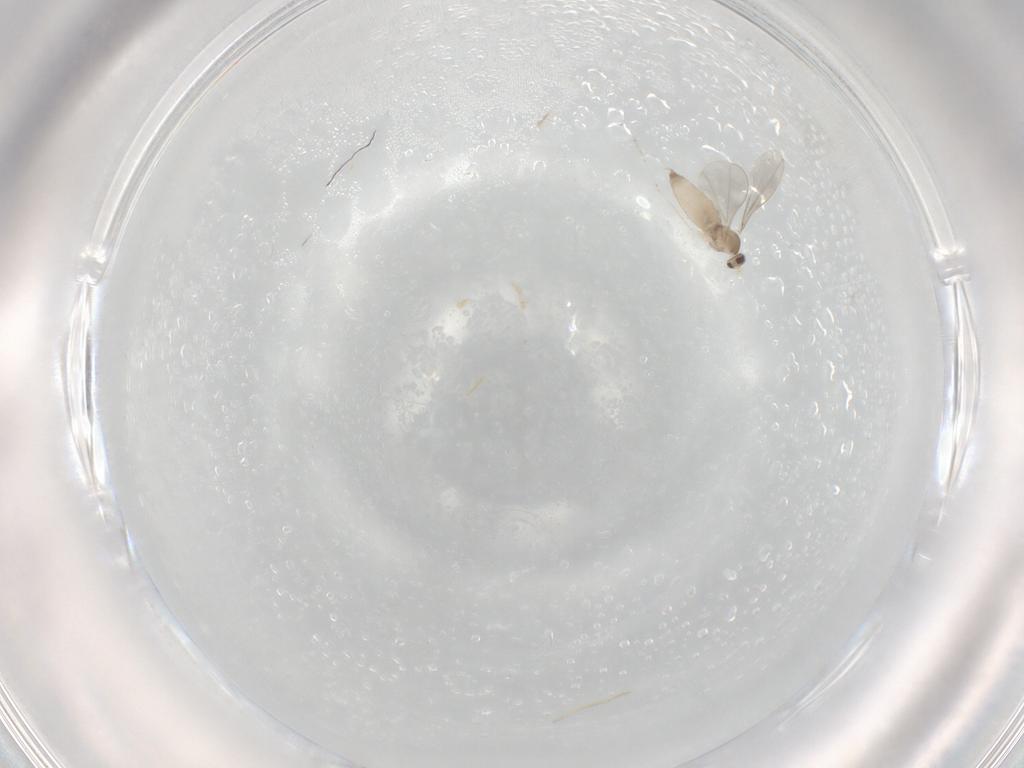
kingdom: Animalia
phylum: Arthropoda
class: Insecta
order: Diptera
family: Cecidomyiidae
